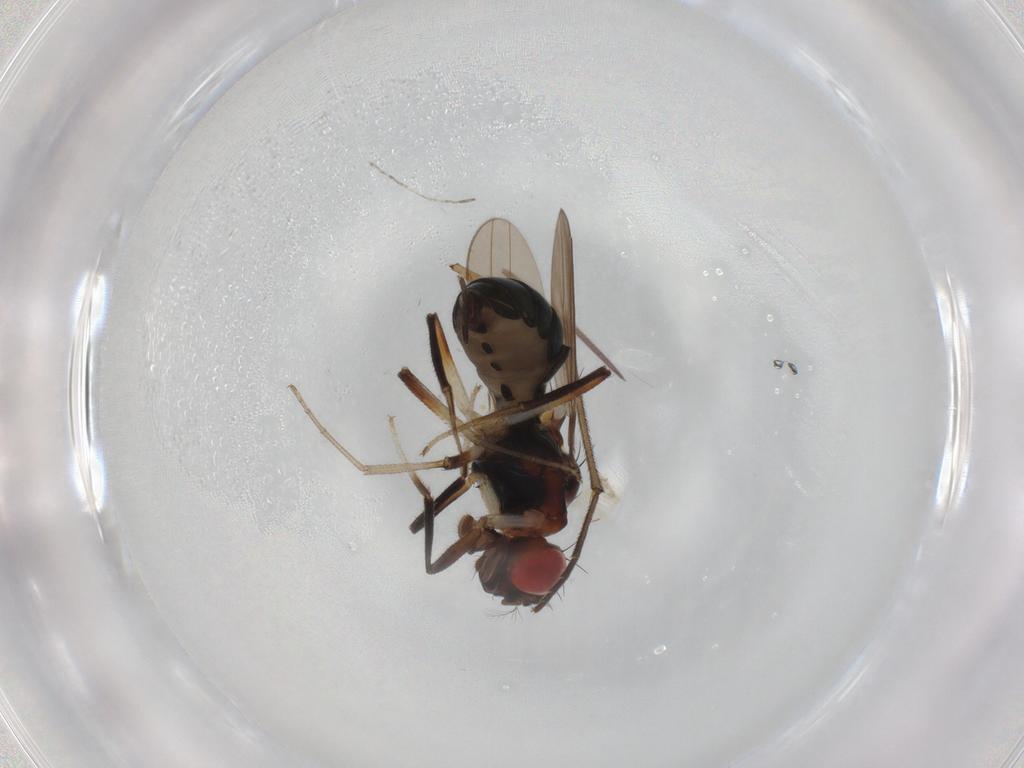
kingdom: Animalia
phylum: Arthropoda
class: Insecta
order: Diptera
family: Drosophilidae
